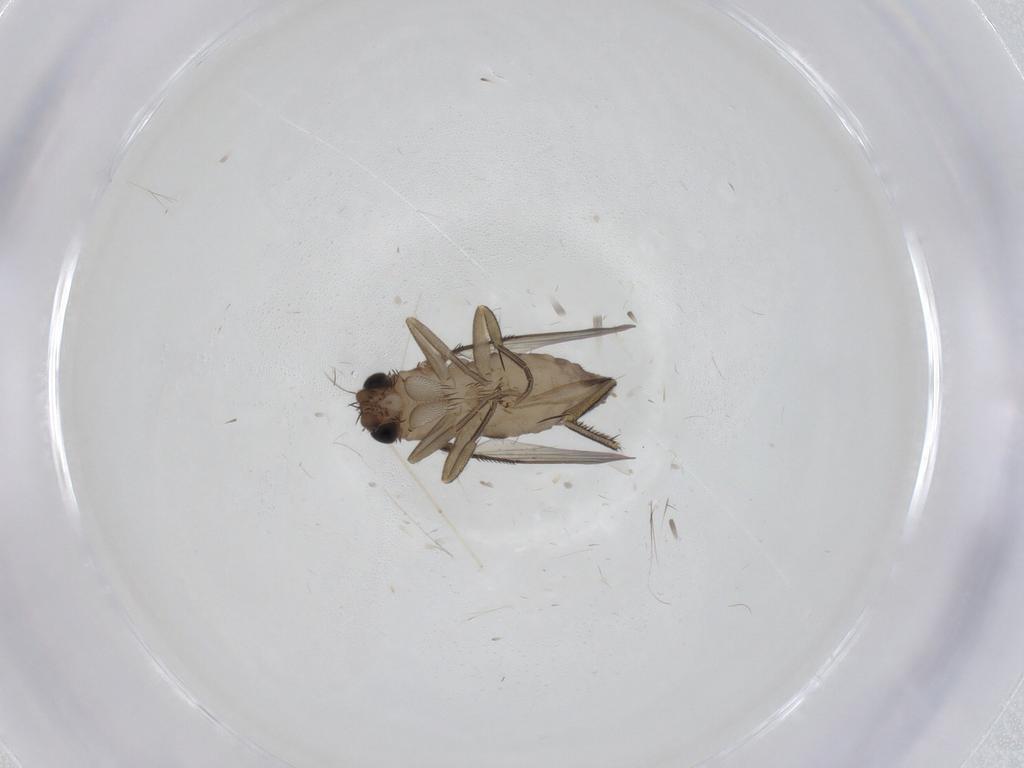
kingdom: Animalia
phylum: Arthropoda
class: Insecta
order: Diptera
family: Phoridae
